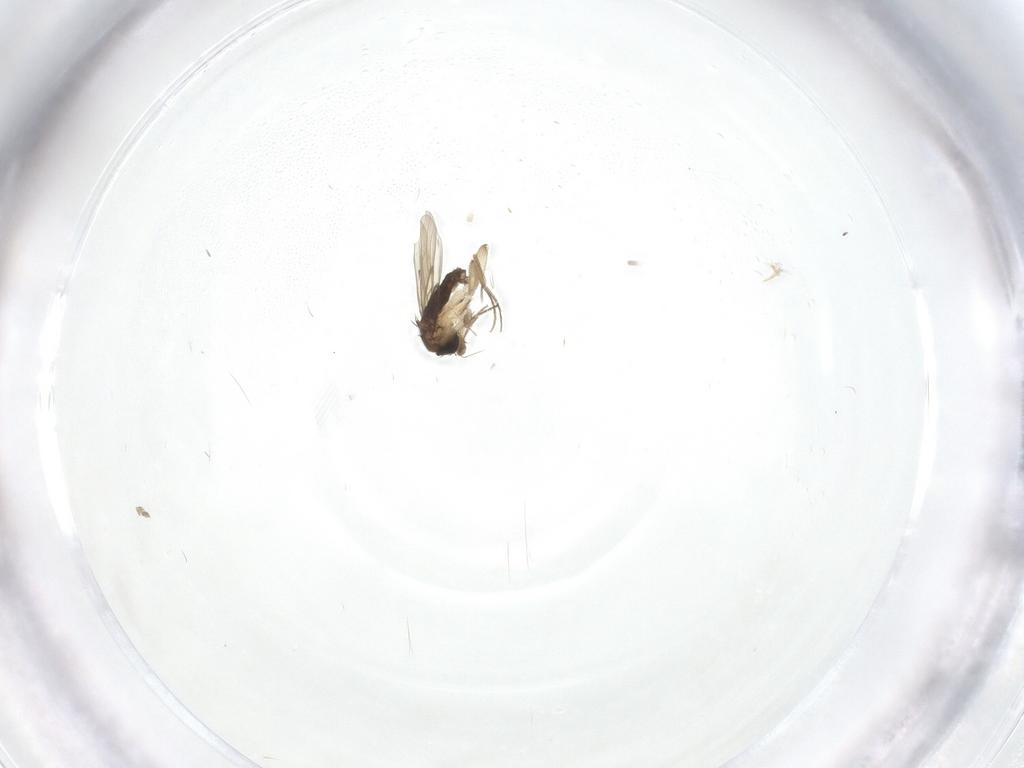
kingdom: Animalia
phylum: Arthropoda
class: Insecta
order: Diptera
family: Phoridae
